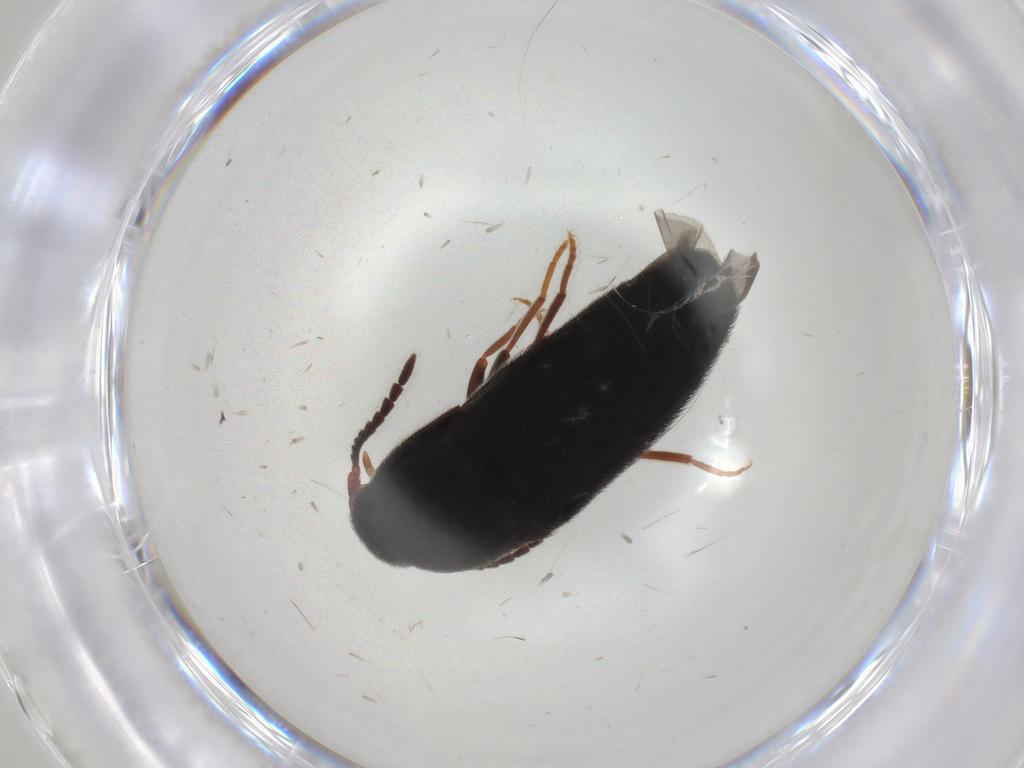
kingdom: Animalia
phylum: Arthropoda
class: Insecta
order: Coleoptera
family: Eucnemidae
